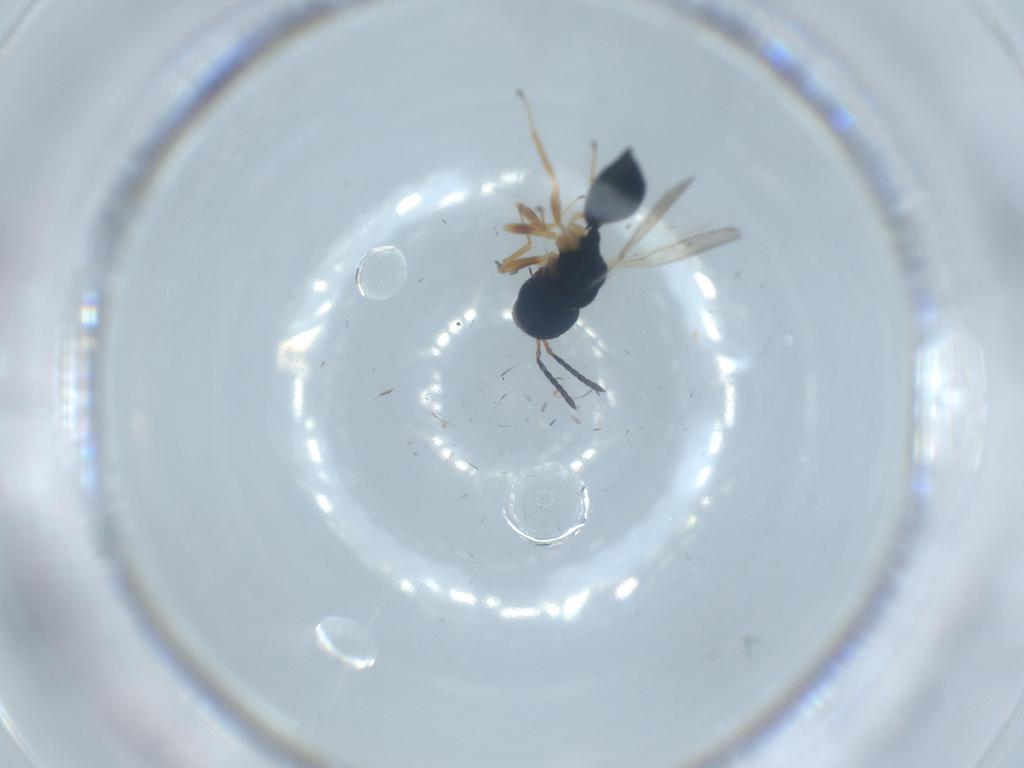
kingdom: Animalia
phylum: Arthropoda
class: Insecta
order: Hymenoptera
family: Pteromalidae
